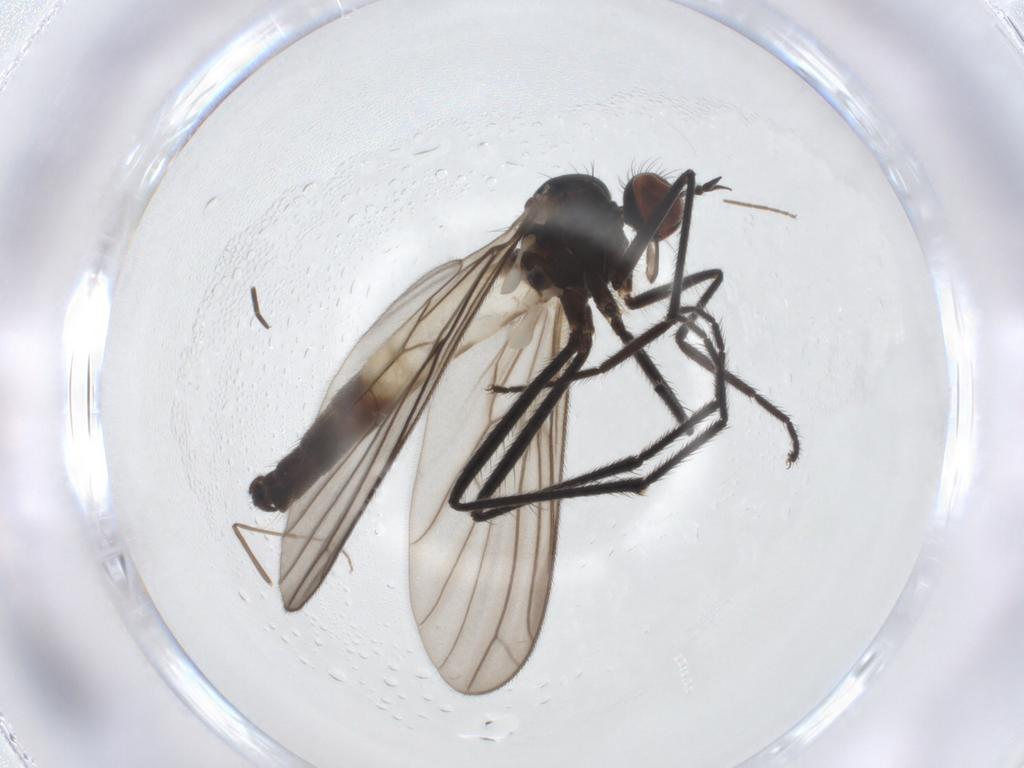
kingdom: Animalia
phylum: Arthropoda
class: Insecta
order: Diptera
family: Empididae
